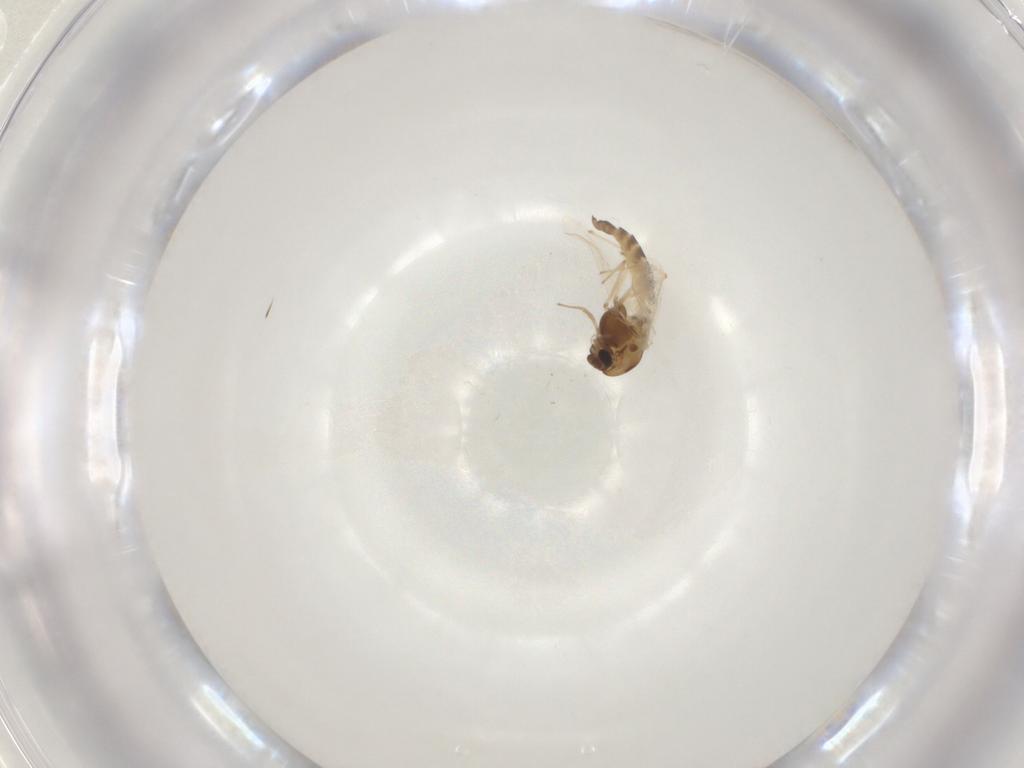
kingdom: Animalia
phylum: Arthropoda
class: Insecta
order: Diptera
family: Chironomidae
